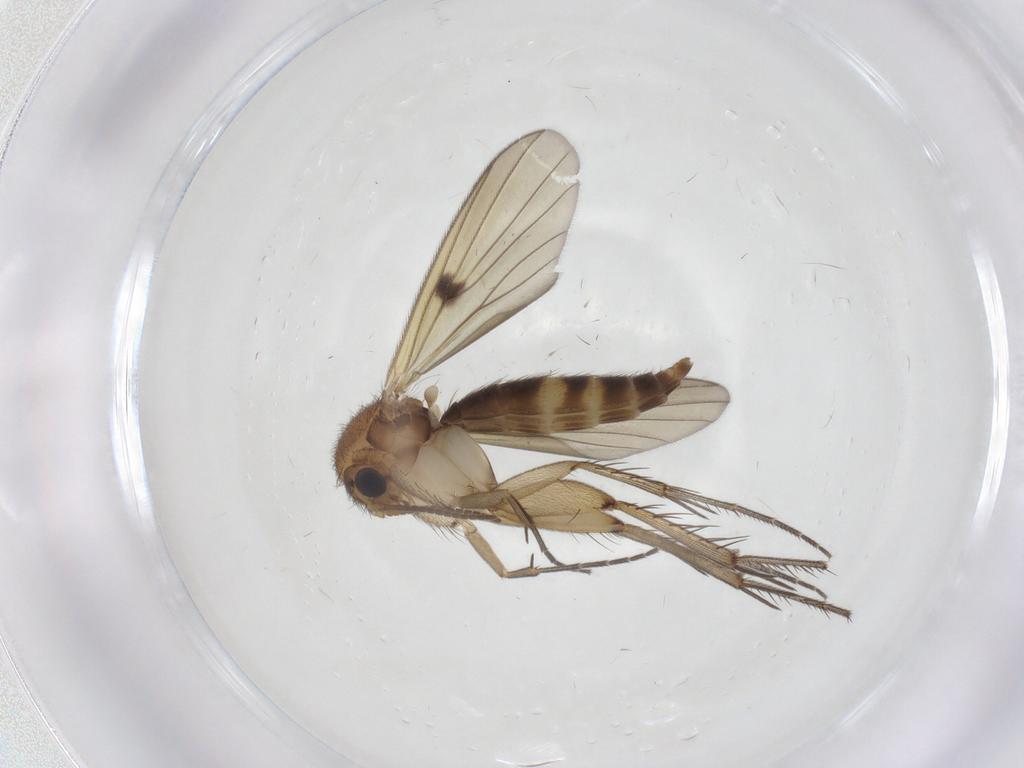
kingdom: Animalia
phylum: Arthropoda
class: Insecta
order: Diptera
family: Mycetophilidae
